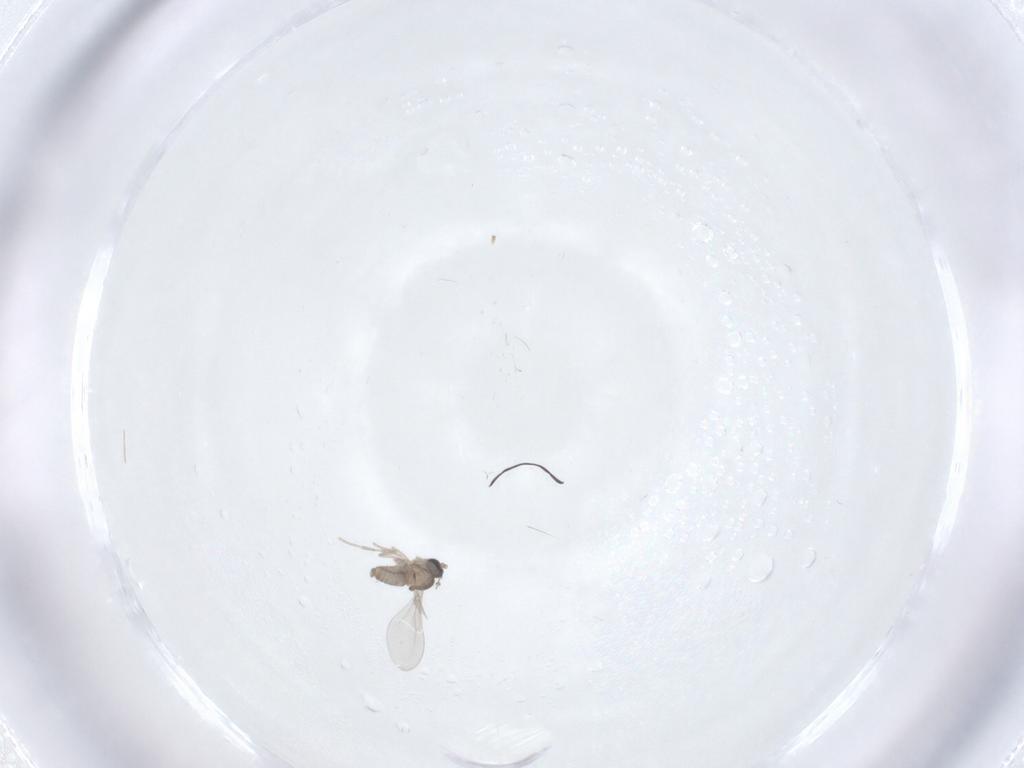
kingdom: Animalia
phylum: Arthropoda
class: Insecta
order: Diptera
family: Cecidomyiidae
